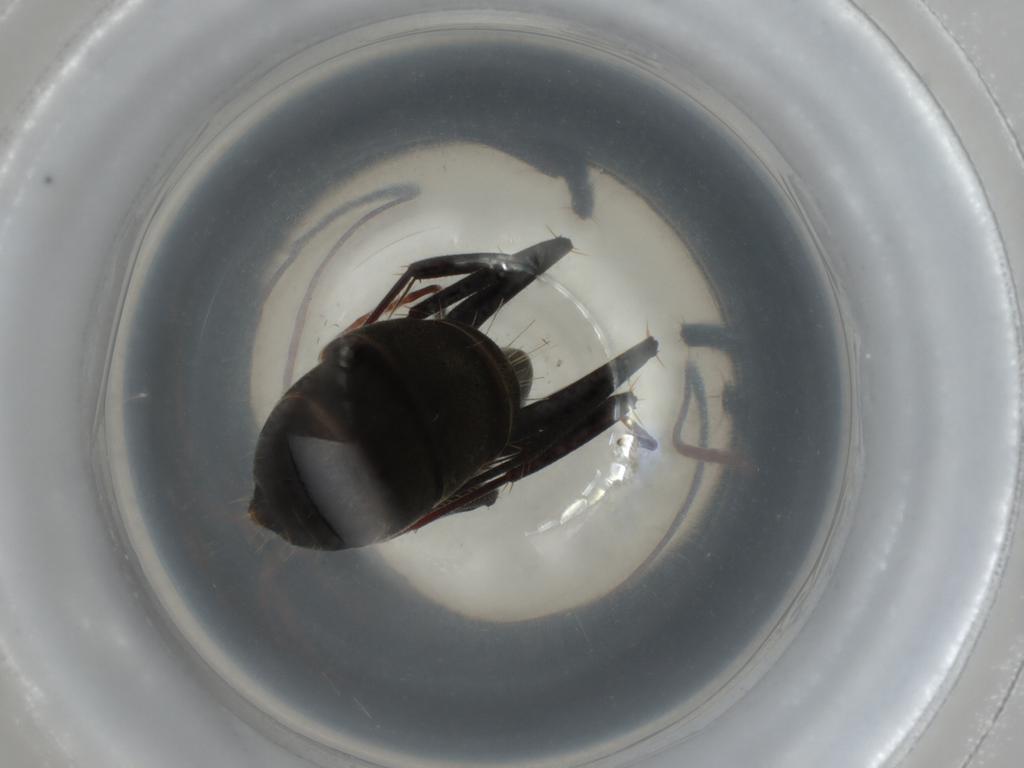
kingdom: Animalia
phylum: Arthropoda
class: Insecta
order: Hymenoptera
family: Formicidae
